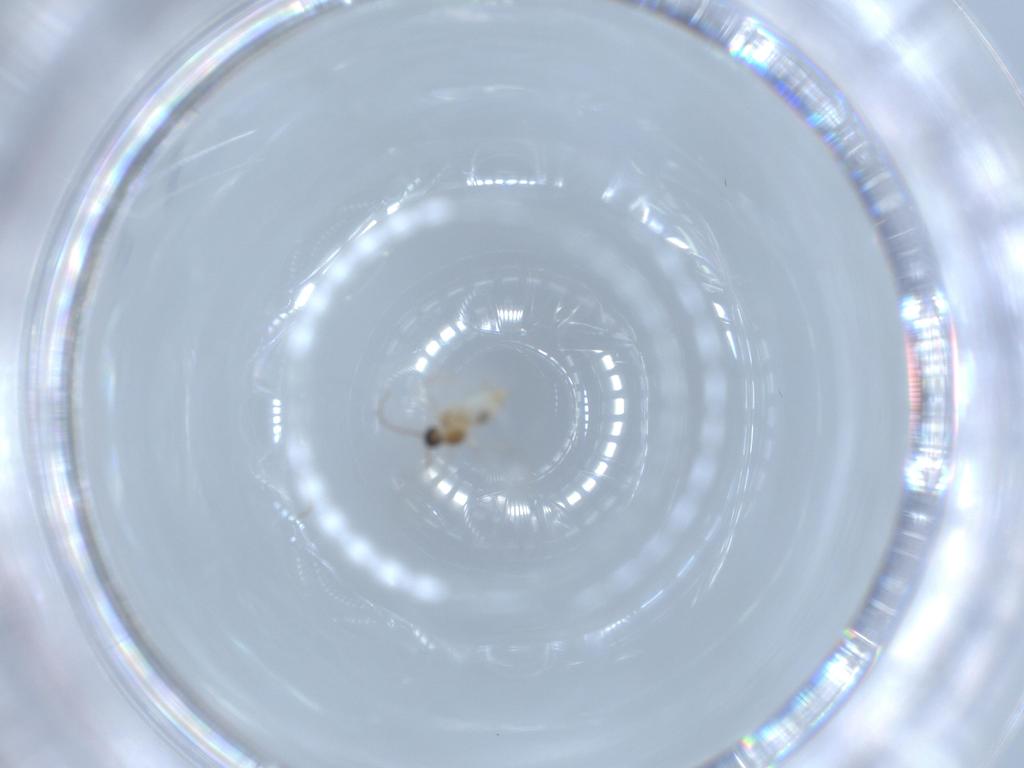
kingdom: Animalia
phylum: Arthropoda
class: Insecta
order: Diptera
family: Cecidomyiidae
